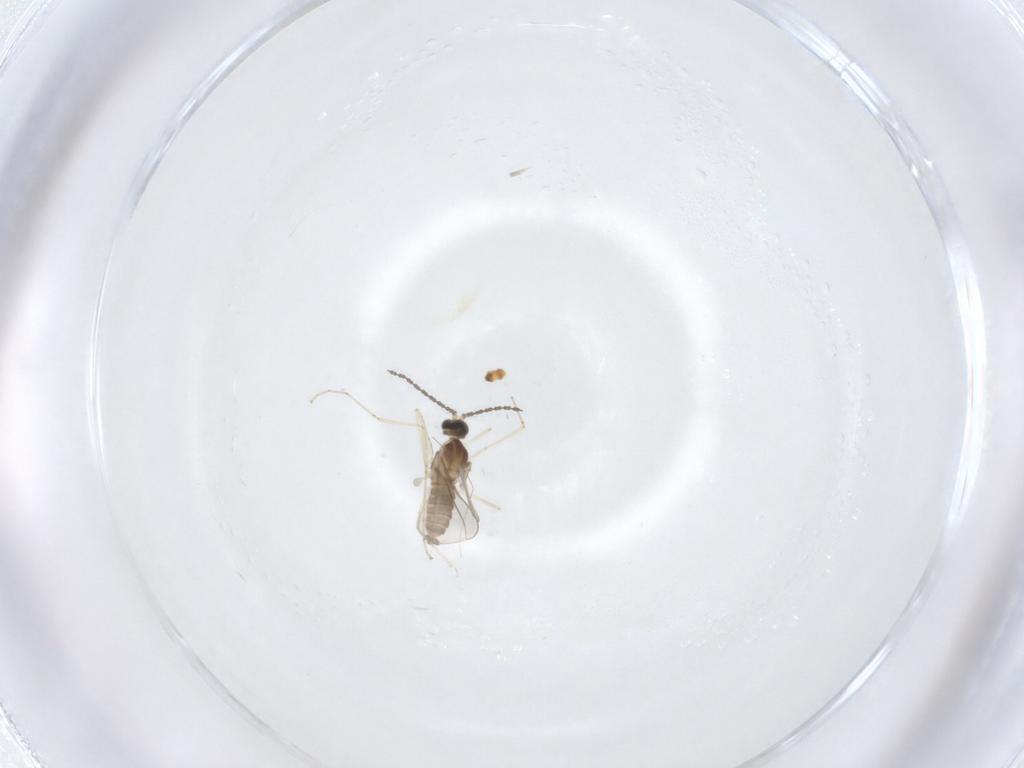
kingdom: Animalia
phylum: Arthropoda
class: Insecta
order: Diptera
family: Cecidomyiidae
